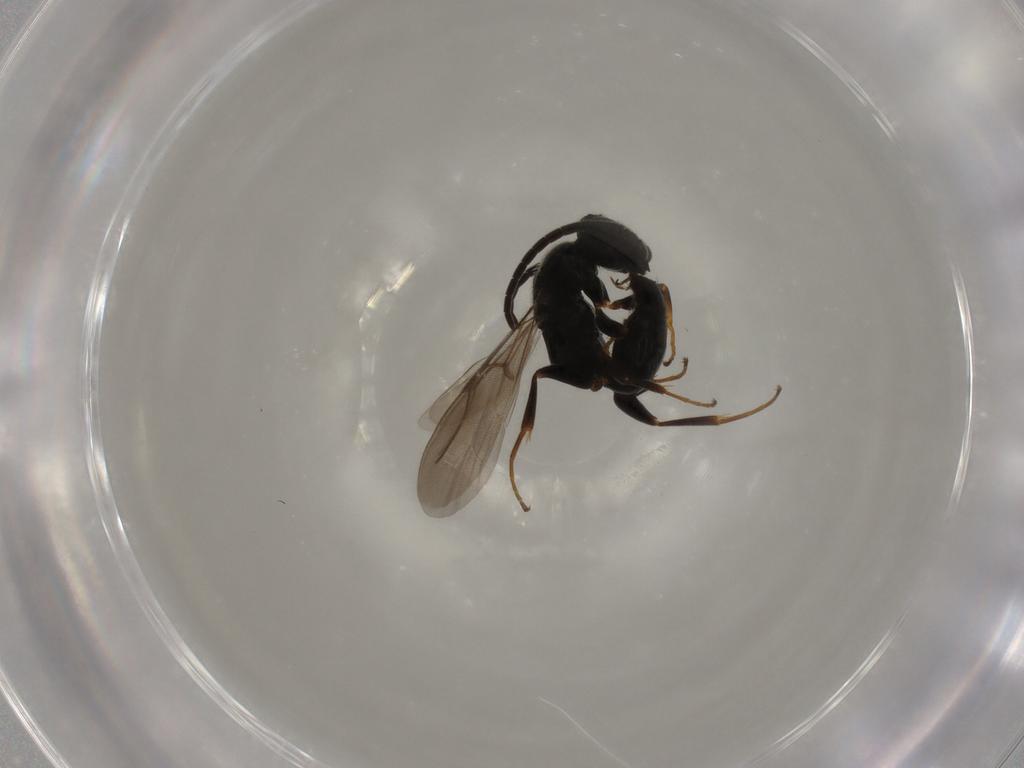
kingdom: Animalia
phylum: Arthropoda
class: Insecta
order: Hymenoptera
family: Bethylidae
